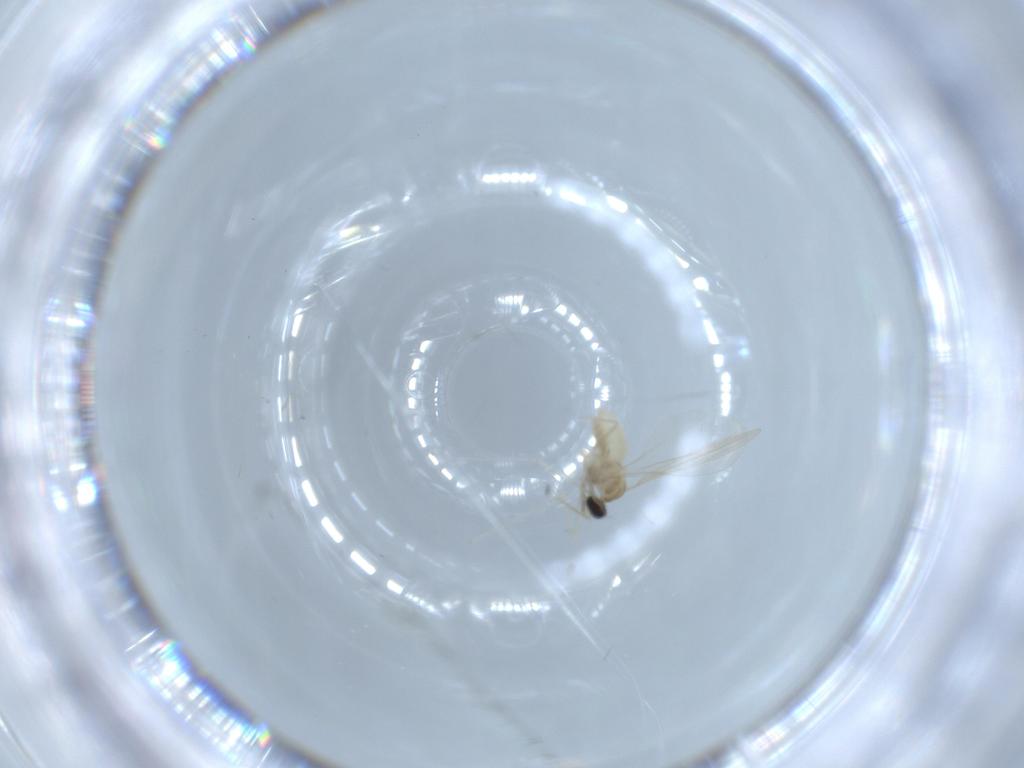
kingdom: Animalia
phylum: Arthropoda
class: Insecta
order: Diptera
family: Cecidomyiidae
